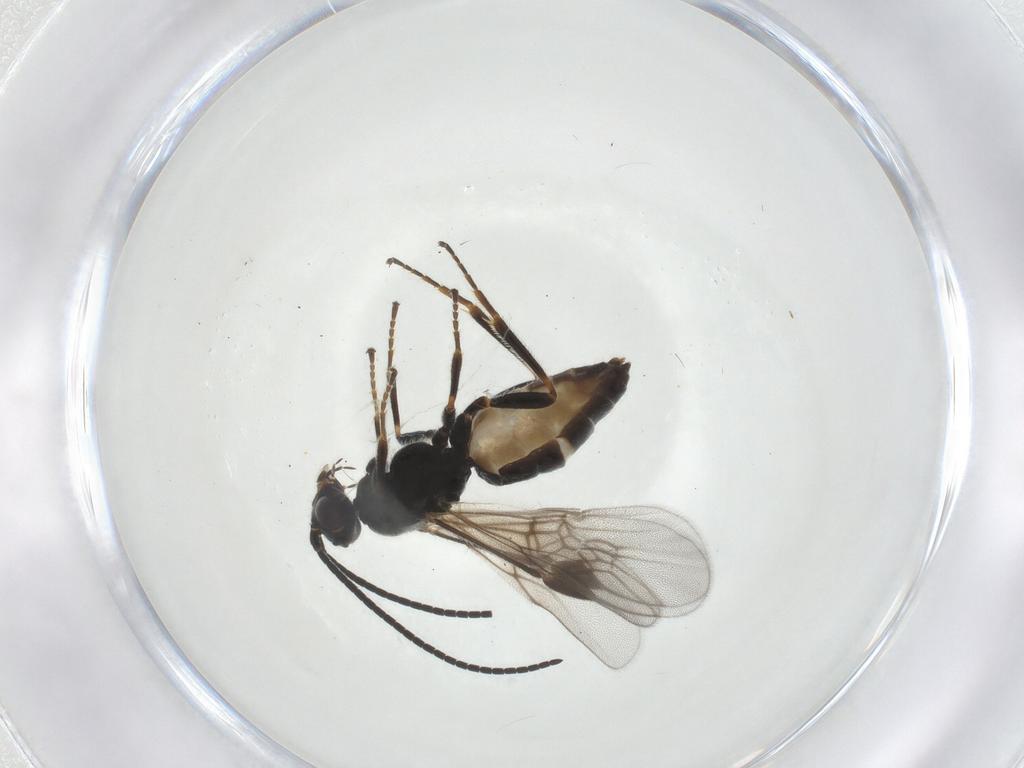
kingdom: Animalia
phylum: Arthropoda
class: Insecta
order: Hymenoptera
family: Braconidae
